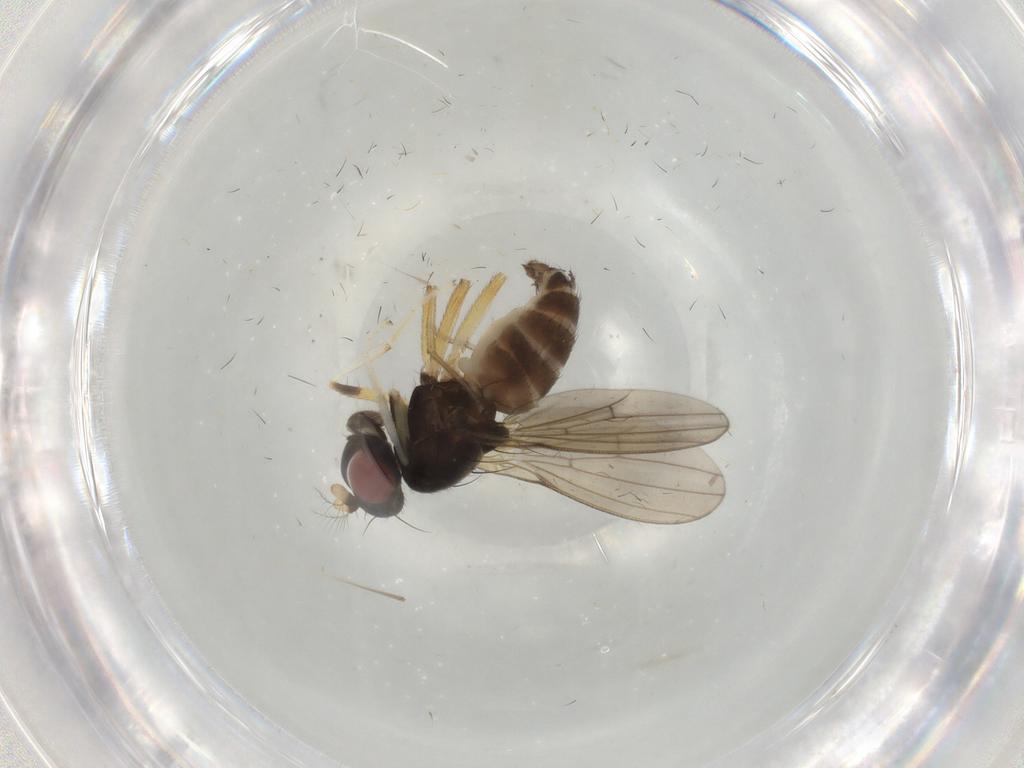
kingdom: Animalia
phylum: Arthropoda
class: Insecta
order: Diptera
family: Lauxaniidae
